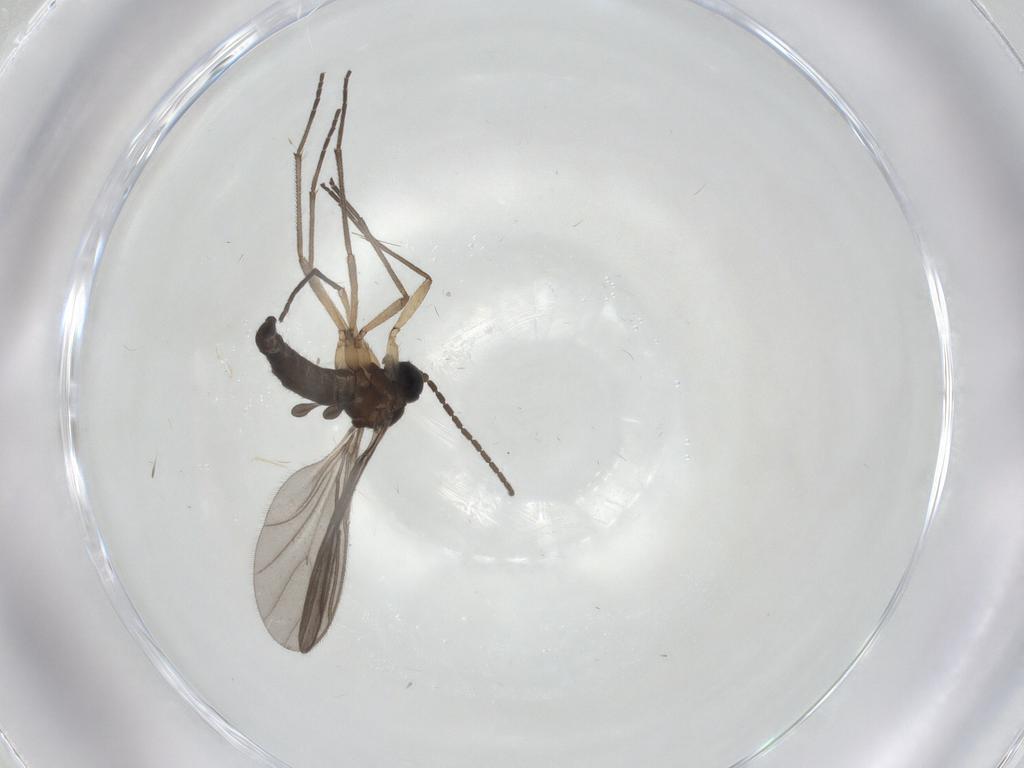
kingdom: Animalia
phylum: Arthropoda
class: Insecta
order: Diptera
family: Sciaridae
